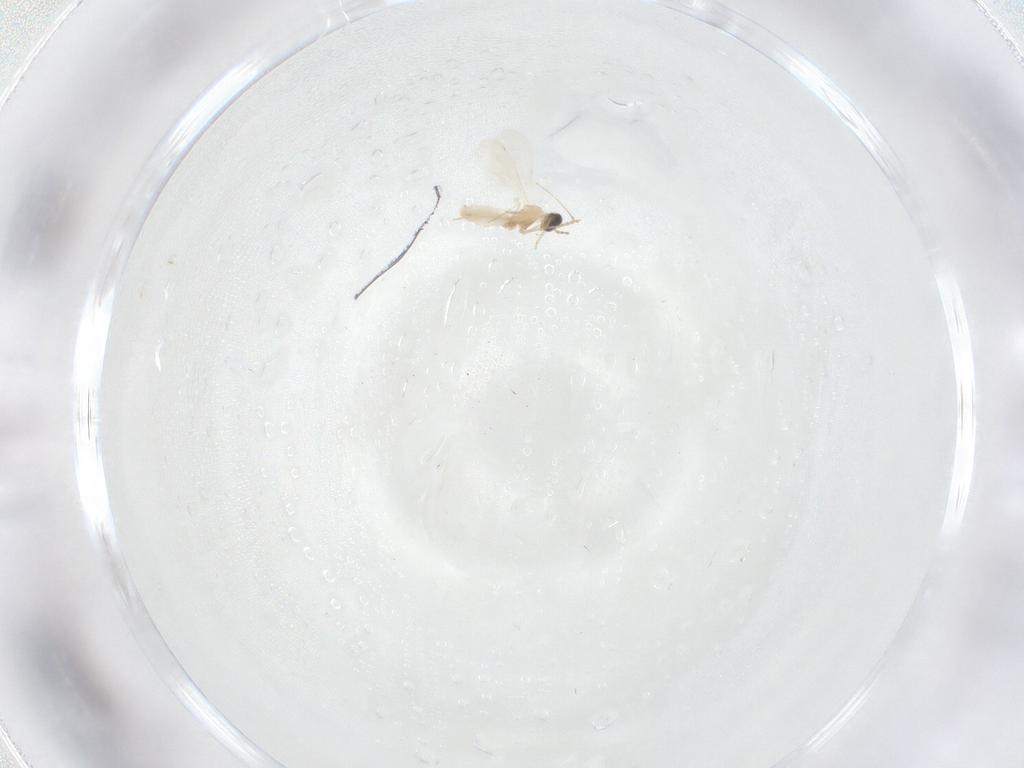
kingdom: Animalia
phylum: Arthropoda
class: Insecta
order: Diptera
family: Cecidomyiidae
